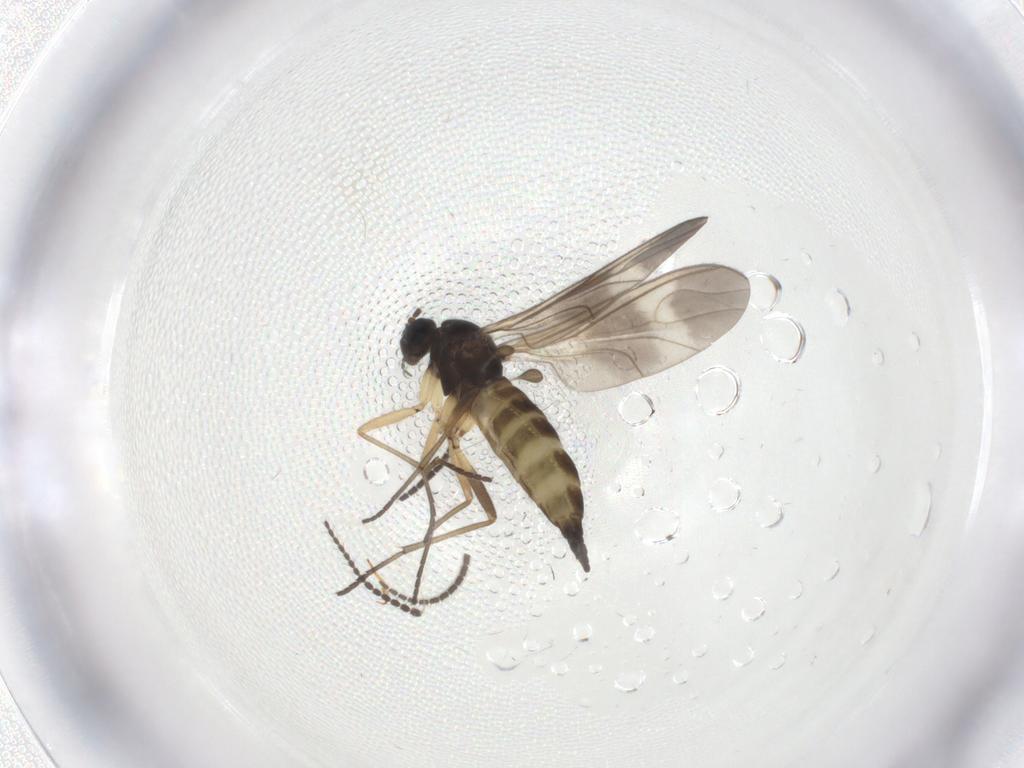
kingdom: Animalia
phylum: Arthropoda
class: Insecta
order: Diptera
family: Sciaridae
